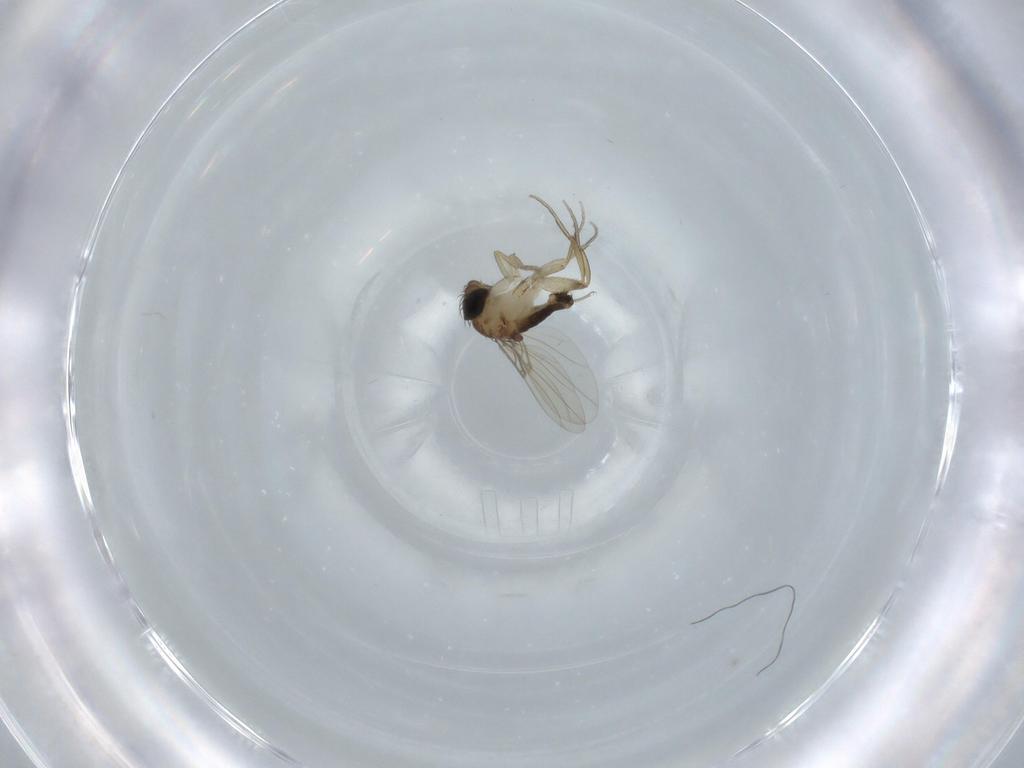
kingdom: Animalia
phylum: Arthropoda
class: Insecta
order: Diptera
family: Phoridae
